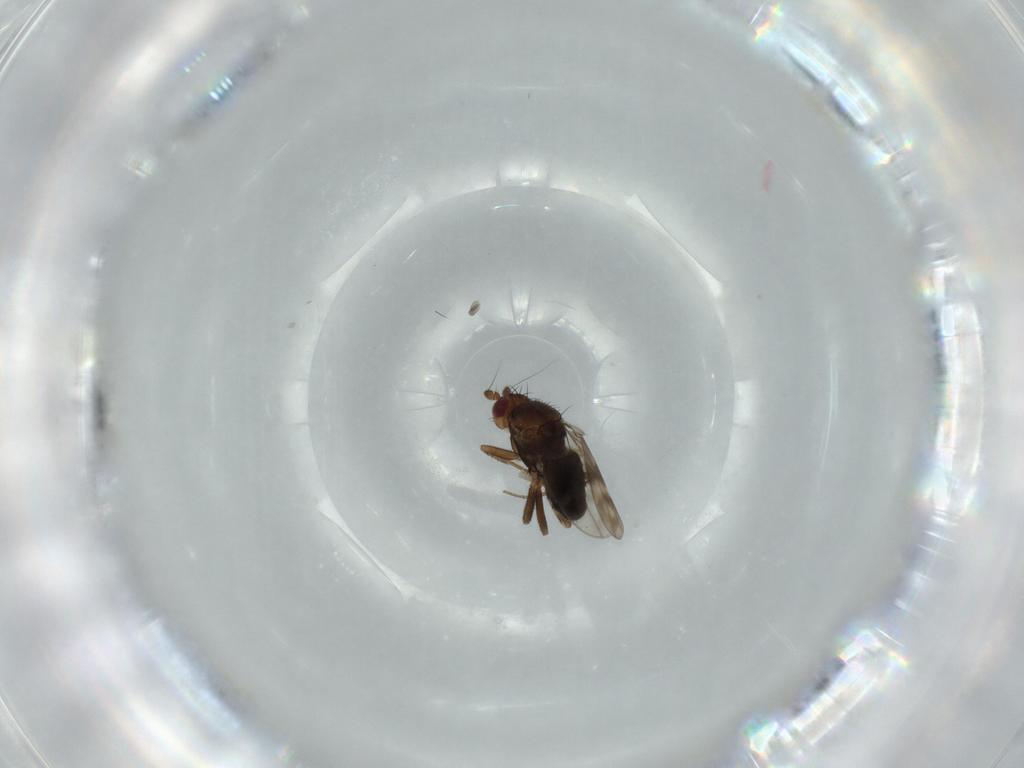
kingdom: Animalia
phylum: Arthropoda
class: Insecta
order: Diptera
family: Sphaeroceridae
